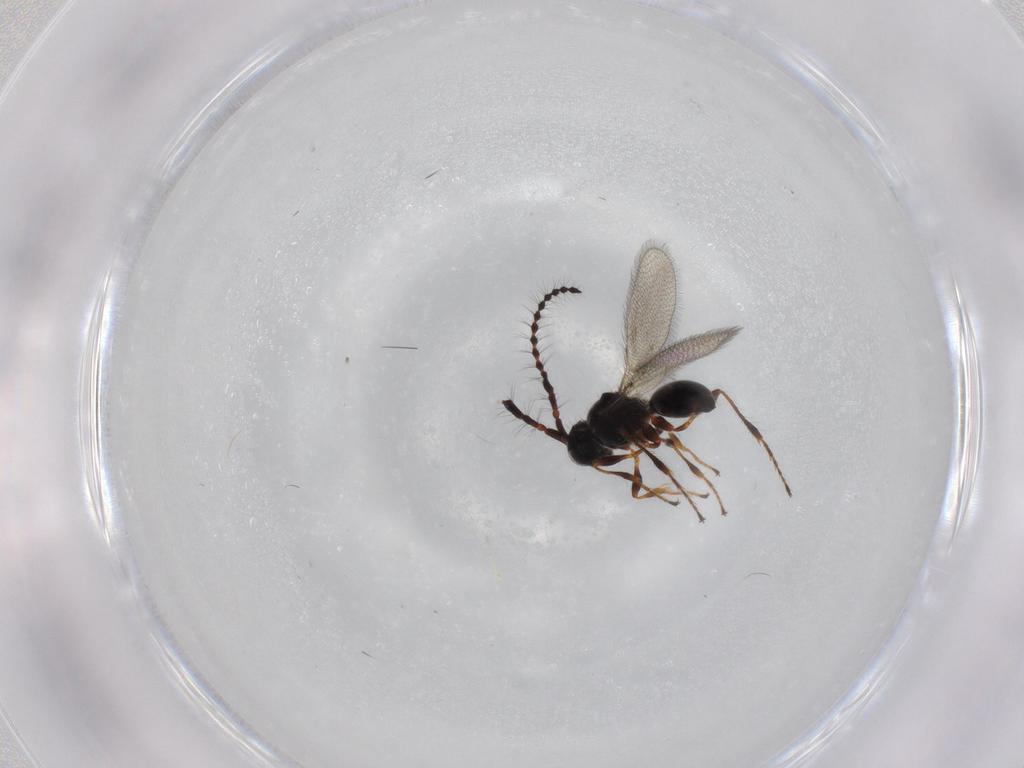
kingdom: Animalia
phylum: Arthropoda
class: Insecta
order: Hymenoptera
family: Diapriidae
